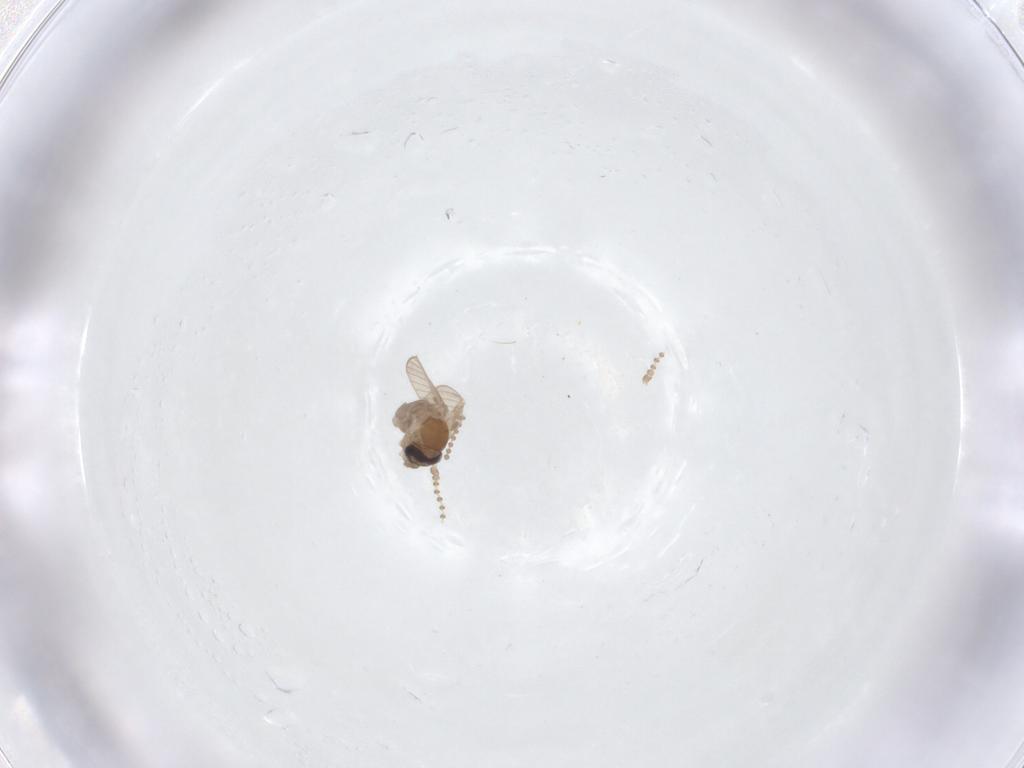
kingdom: Animalia
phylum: Arthropoda
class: Insecta
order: Diptera
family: Psychodidae
